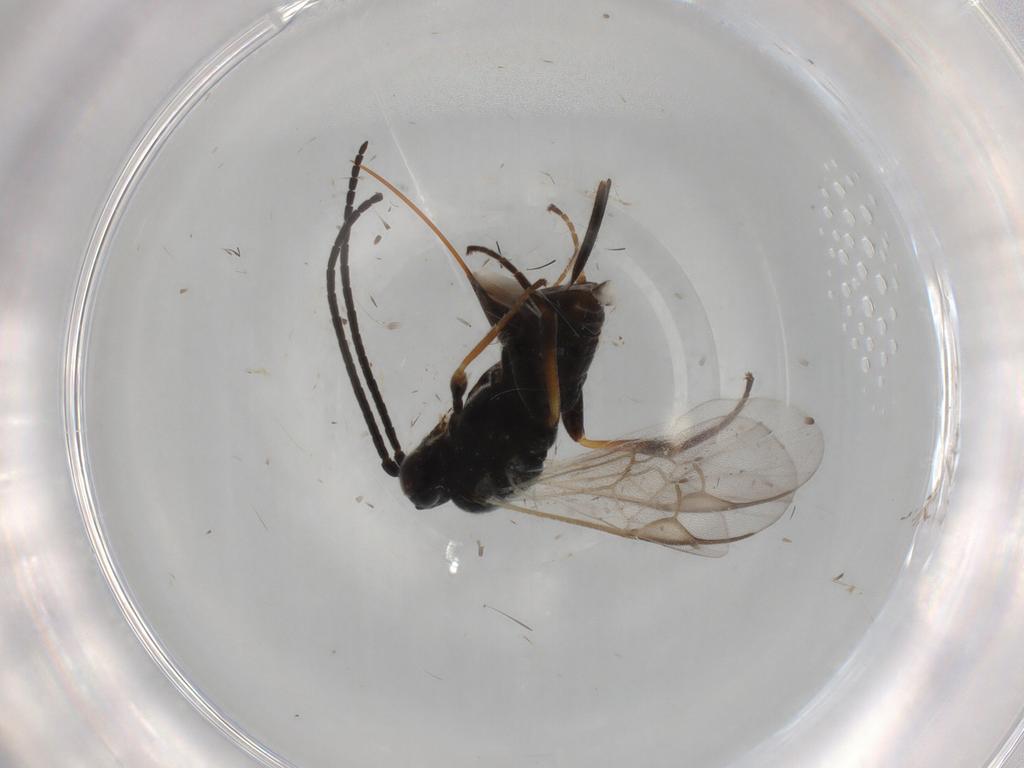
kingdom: Animalia
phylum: Arthropoda
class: Insecta
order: Hymenoptera
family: Braconidae
